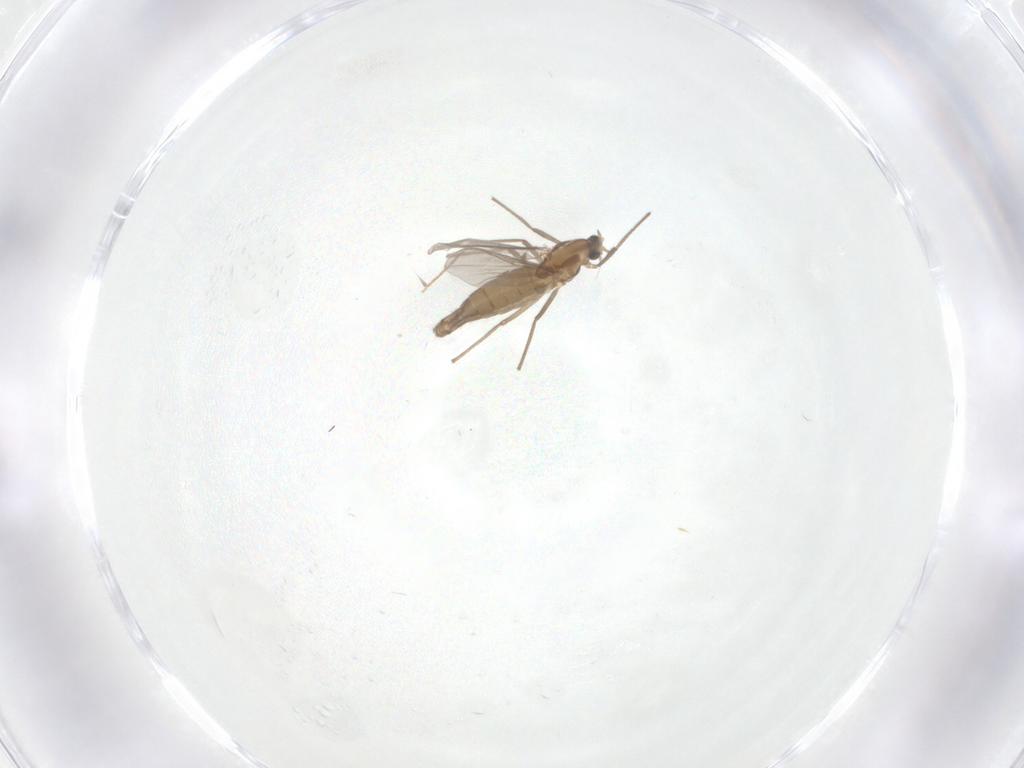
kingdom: Animalia
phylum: Arthropoda
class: Insecta
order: Diptera
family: Cecidomyiidae
